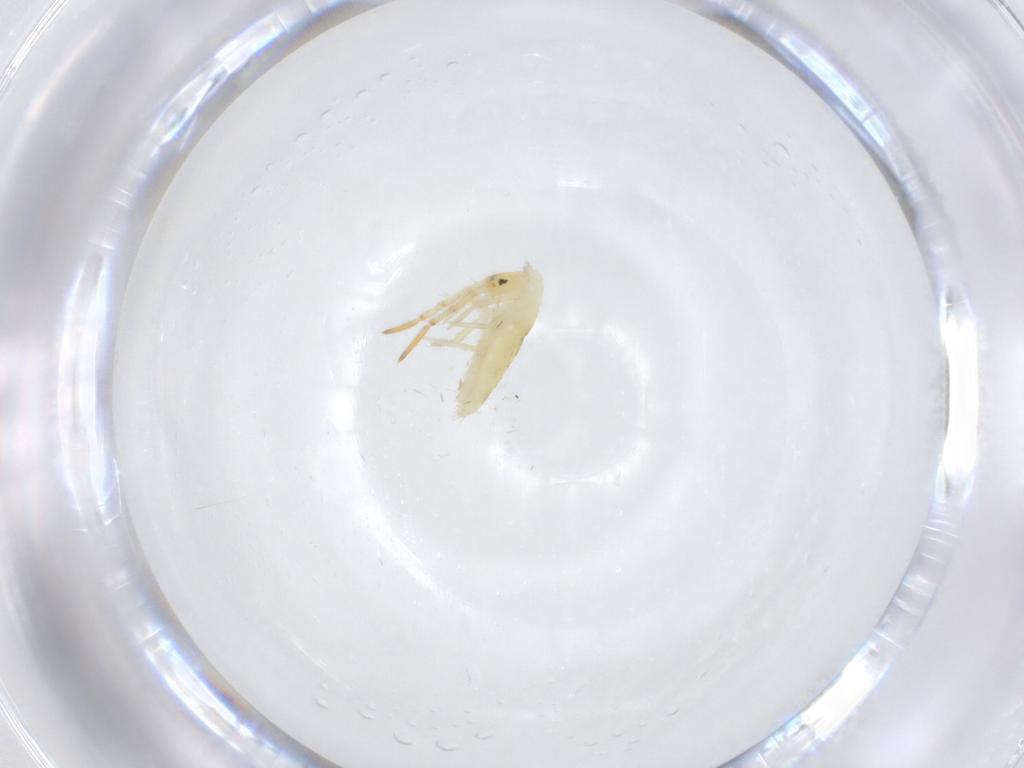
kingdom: Animalia
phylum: Arthropoda
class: Collembola
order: Entomobryomorpha
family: Entomobryidae
